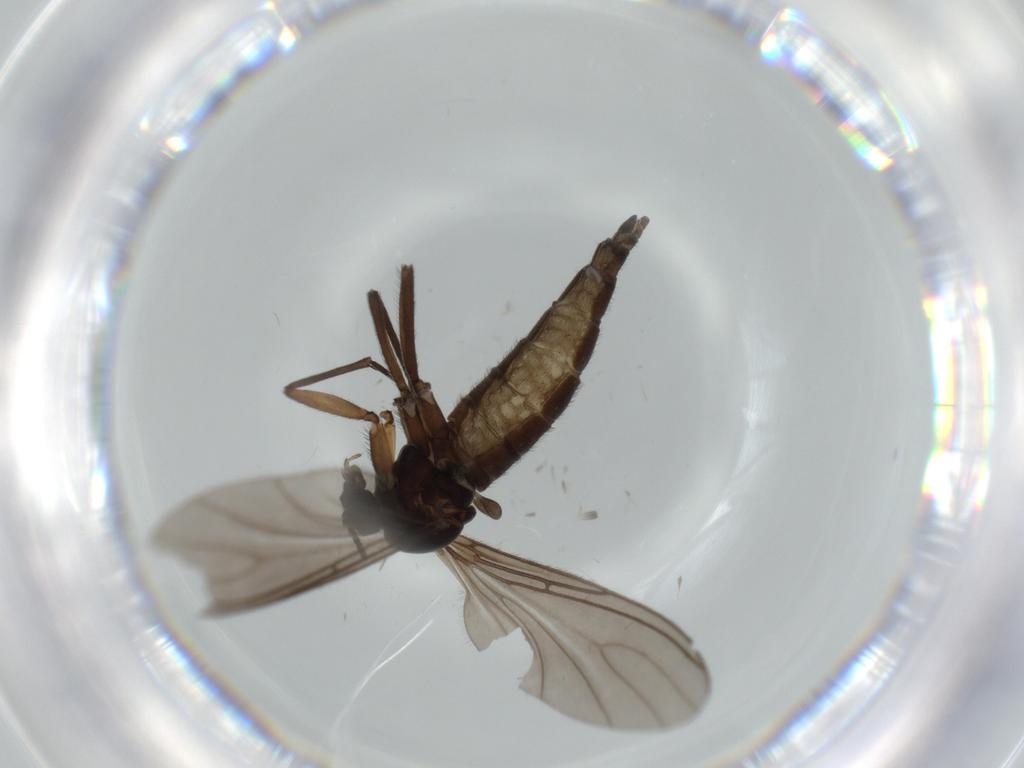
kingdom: Animalia
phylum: Arthropoda
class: Insecta
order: Diptera
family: Sciaridae
